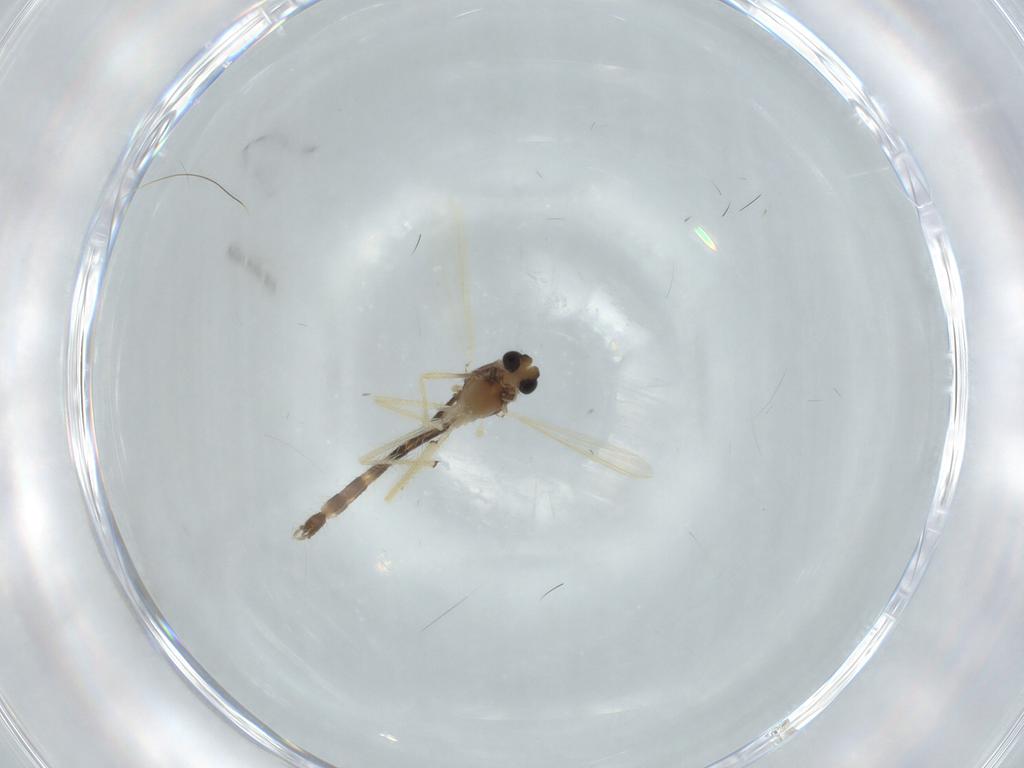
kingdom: Animalia
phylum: Arthropoda
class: Insecta
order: Diptera
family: Chironomidae
